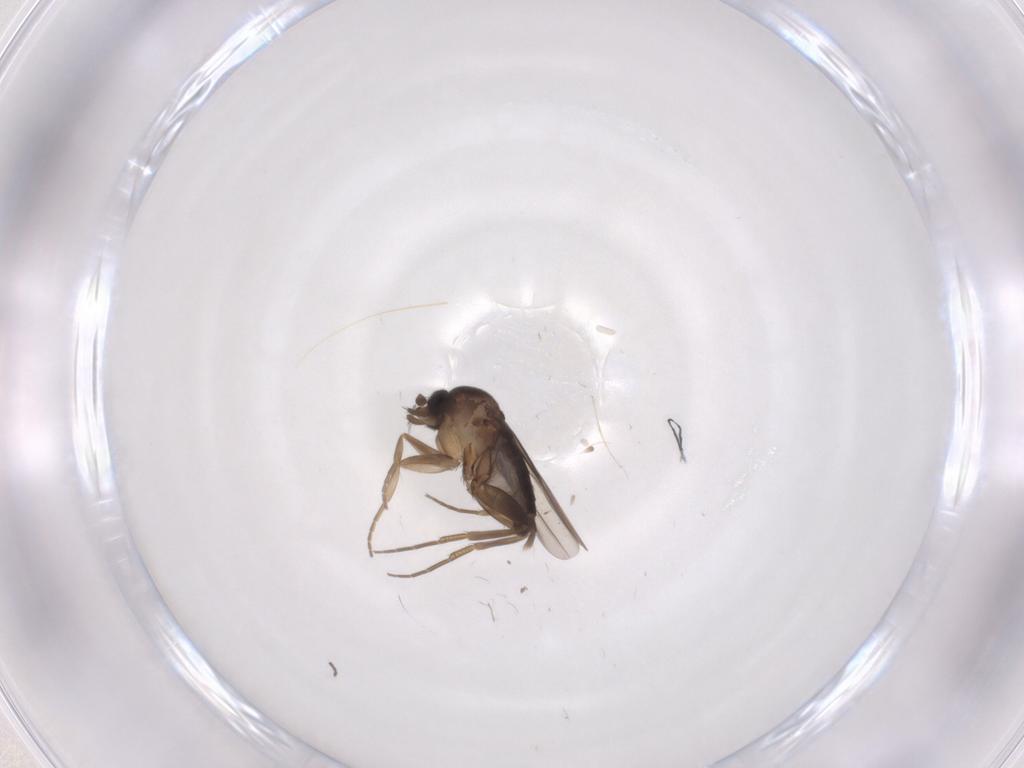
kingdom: Animalia
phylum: Arthropoda
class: Insecta
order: Diptera
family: Phoridae
